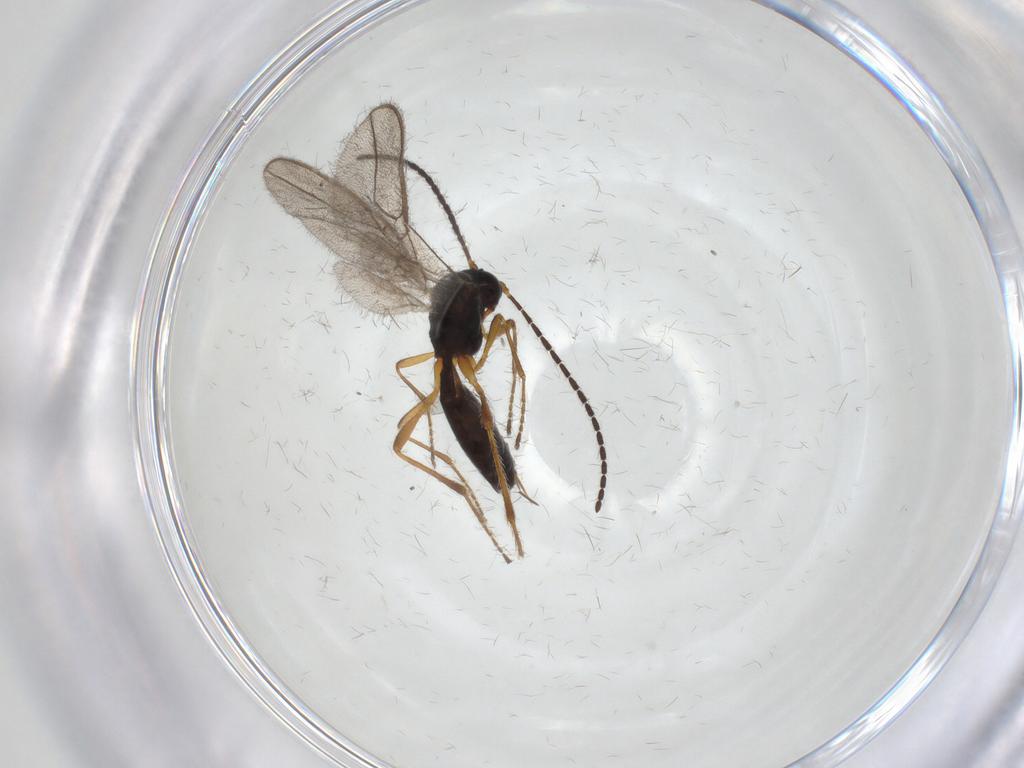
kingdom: Animalia
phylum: Arthropoda
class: Insecta
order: Hymenoptera
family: Braconidae
